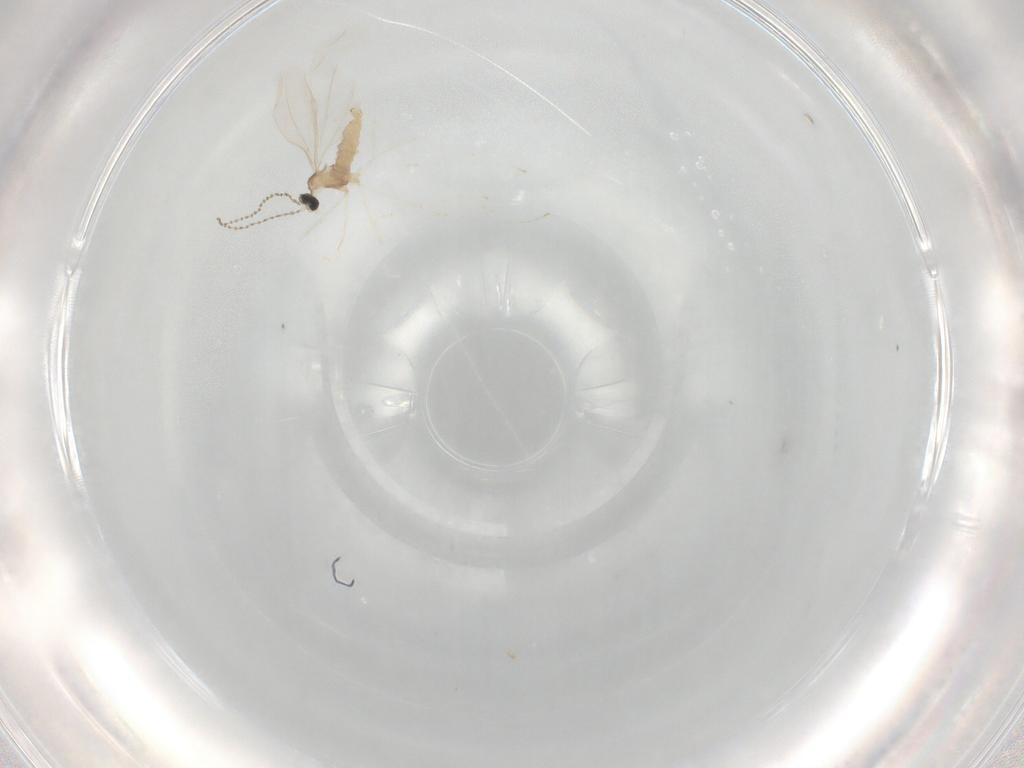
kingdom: Animalia
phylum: Arthropoda
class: Insecta
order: Diptera
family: Cecidomyiidae
